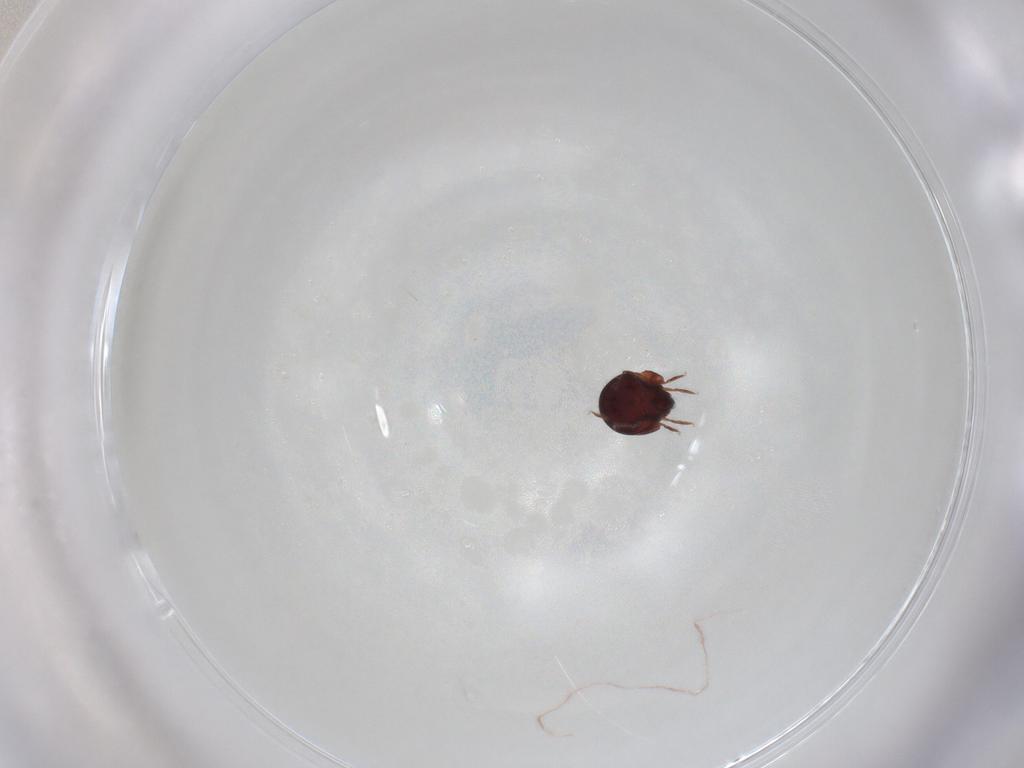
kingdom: Animalia
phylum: Arthropoda
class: Arachnida
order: Sarcoptiformes
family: Humerobatidae
